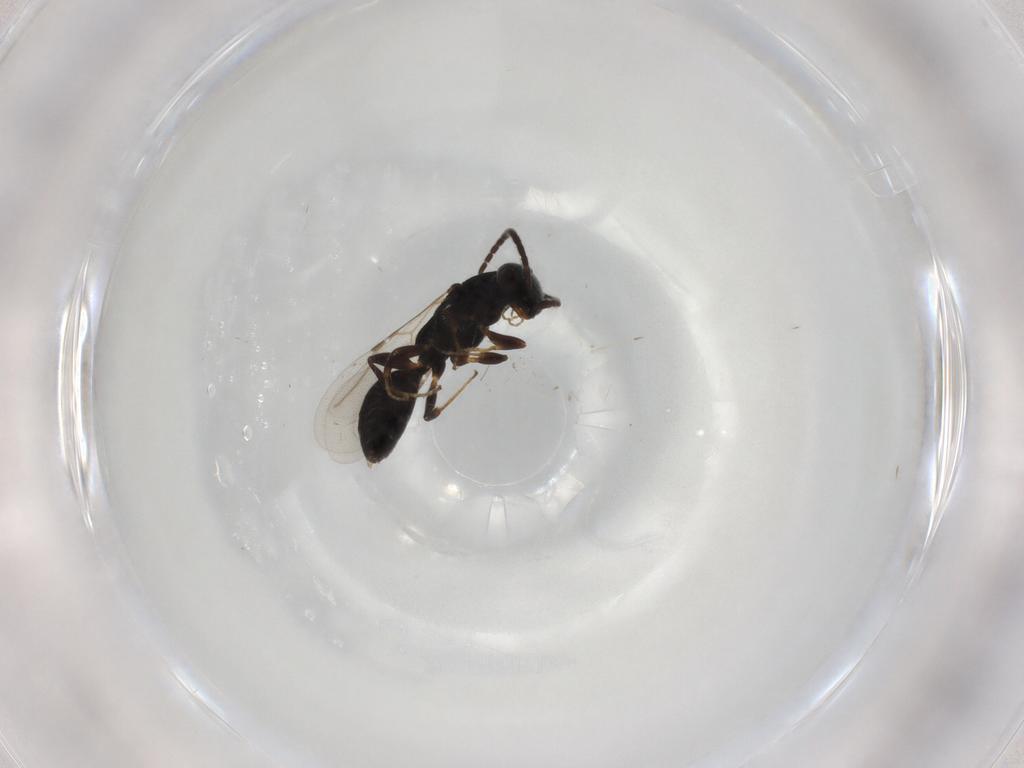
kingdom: Animalia
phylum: Arthropoda
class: Insecta
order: Hymenoptera
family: Bethylidae
